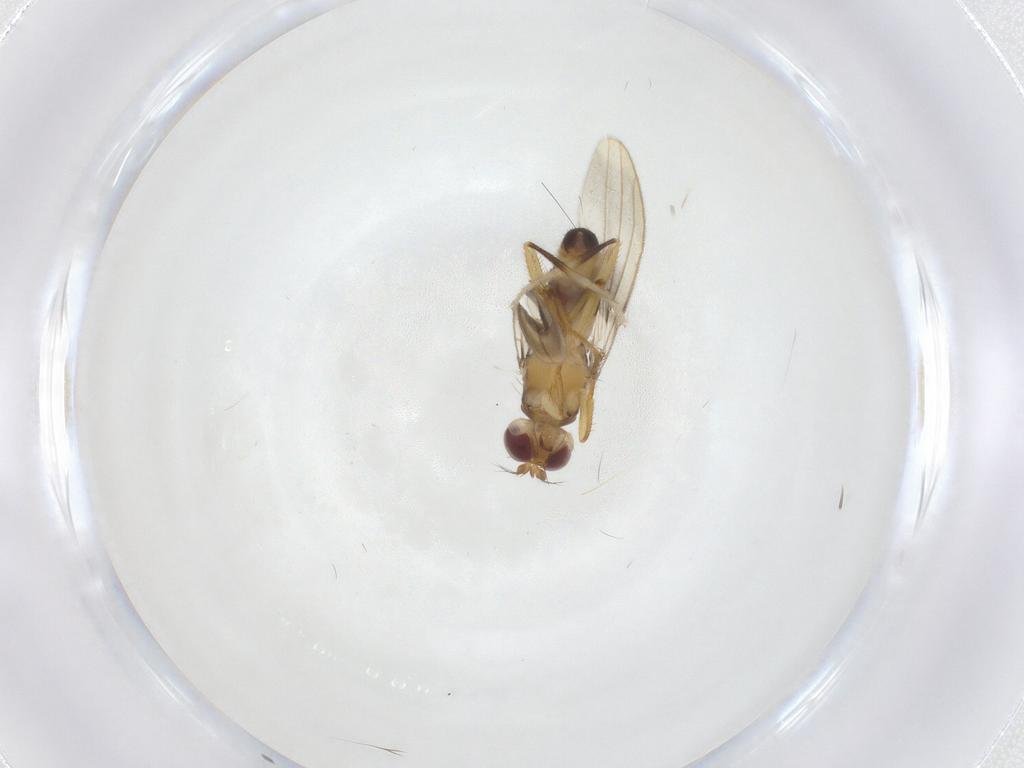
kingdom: Animalia
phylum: Arthropoda
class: Insecta
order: Diptera
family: Periscelididae
